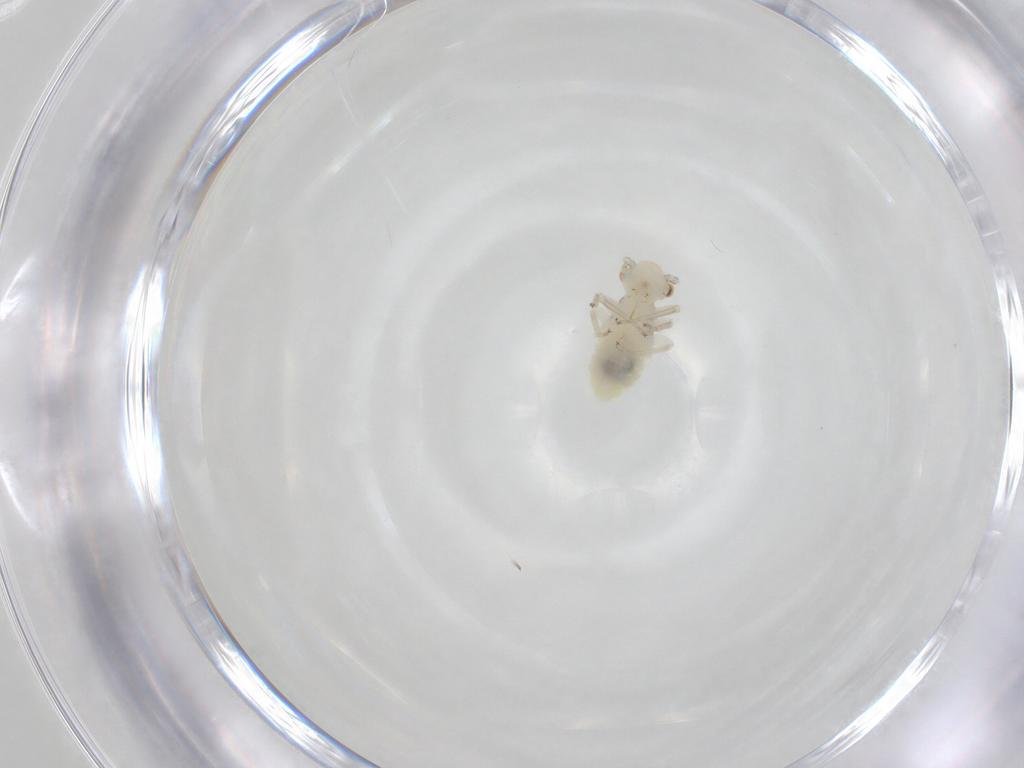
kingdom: Animalia
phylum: Arthropoda
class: Insecta
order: Psocodea
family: Caeciliusidae
